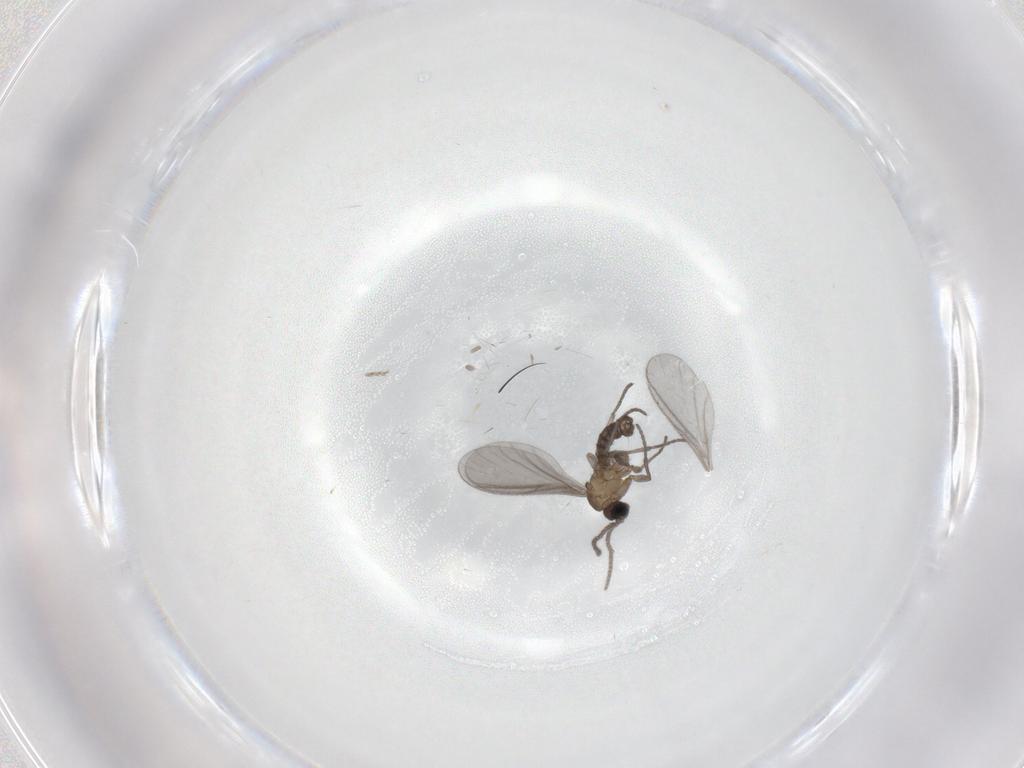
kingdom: Animalia
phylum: Arthropoda
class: Insecta
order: Diptera
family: Sciaridae
